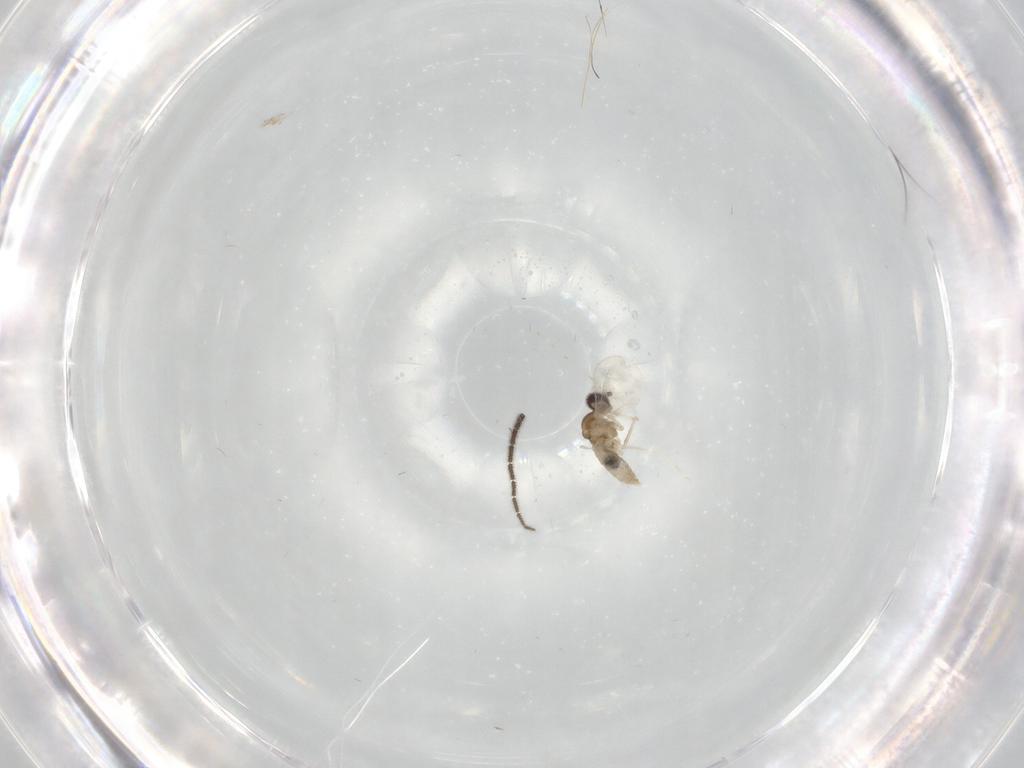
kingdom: Animalia
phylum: Arthropoda
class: Insecta
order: Diptera
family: Cecidomyiidae
